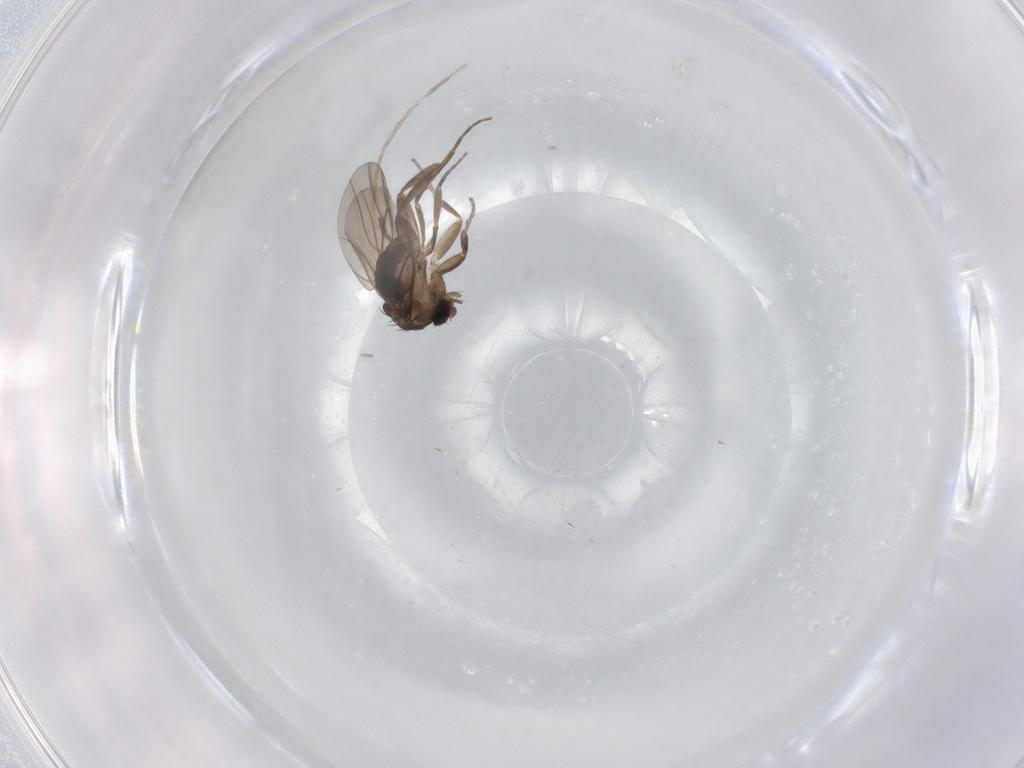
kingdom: Animalia
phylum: Arthropoda
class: Insecta
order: Diptera
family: Phoridae
